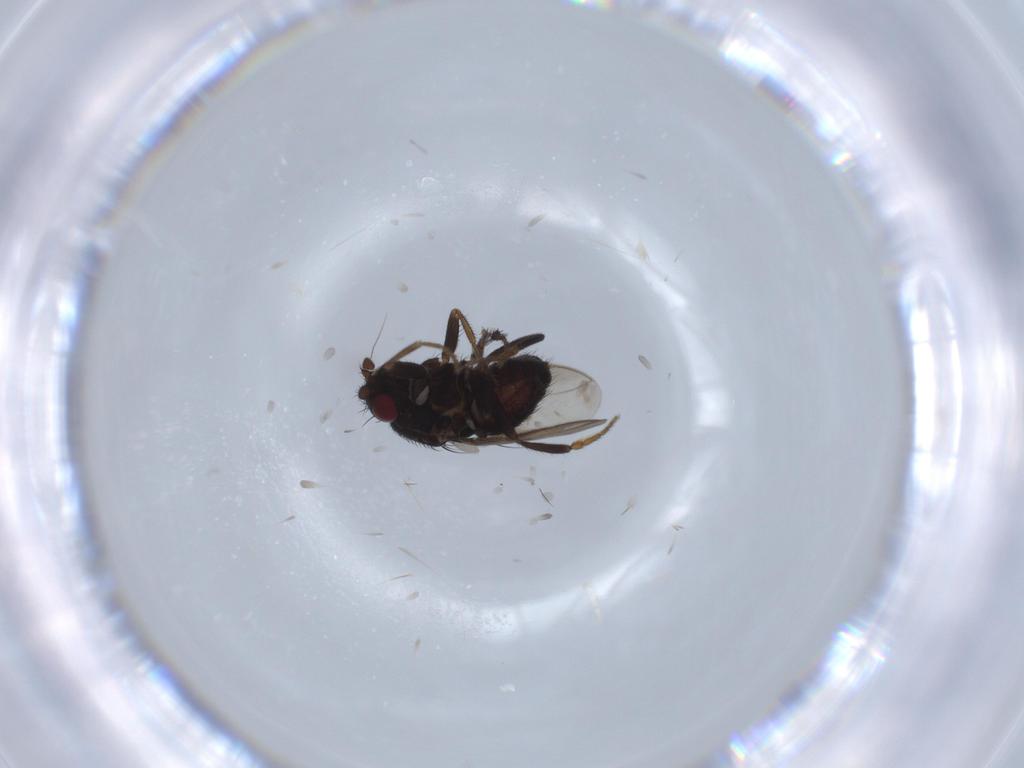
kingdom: Animalia
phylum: Arthropoda
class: Insecta
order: Diptera
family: Sphaeroceridae
